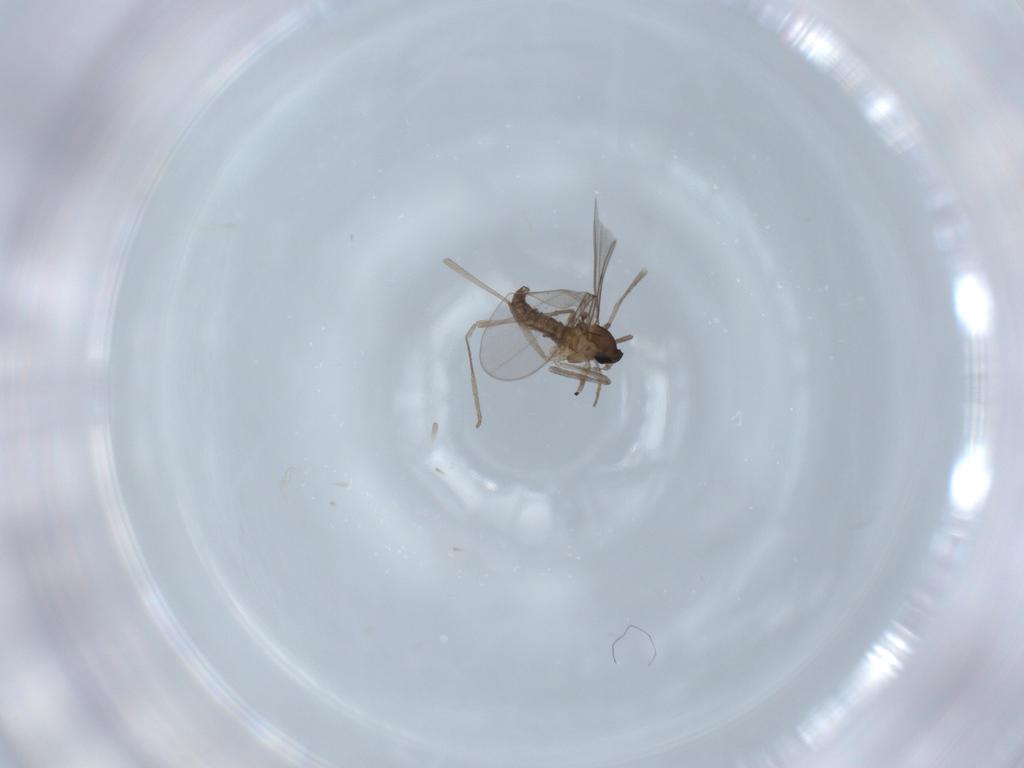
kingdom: Animalia
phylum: Arthropoda
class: Insecta
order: Diptera
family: Cecidomyiidae
